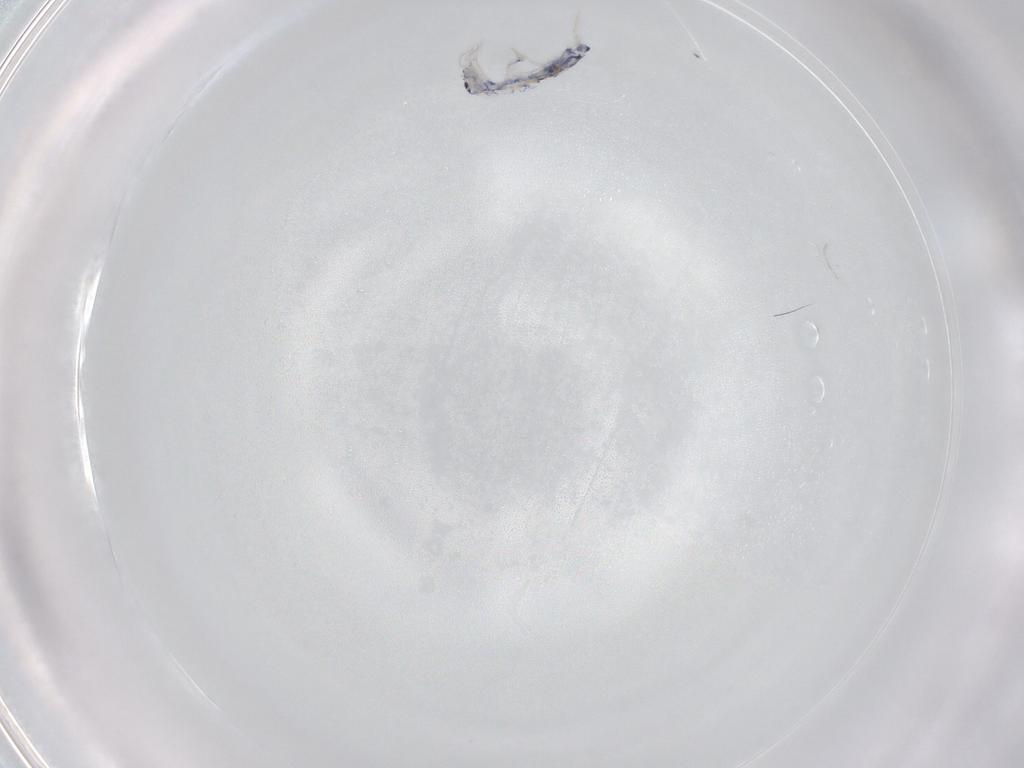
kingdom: Animalia
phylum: Arthropoda
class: Collembola
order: Entomobryomorpha
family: Entomobryidae
